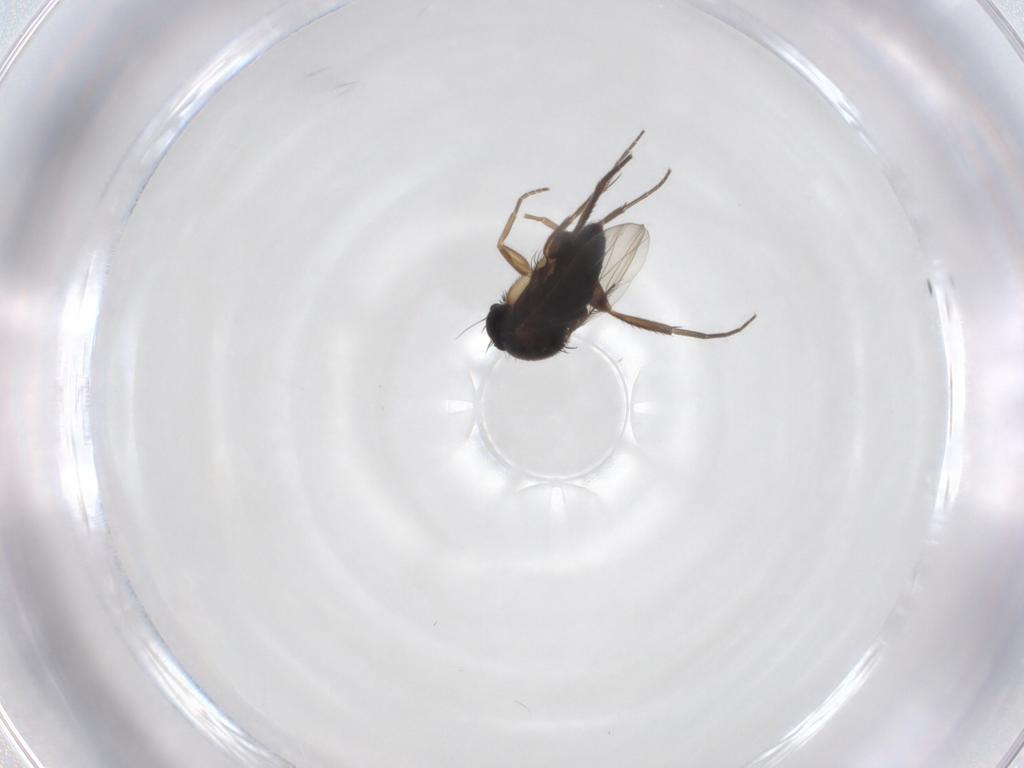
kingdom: Animalia
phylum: Arthropoda
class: Insecta
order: Diptera
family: Phoridae
